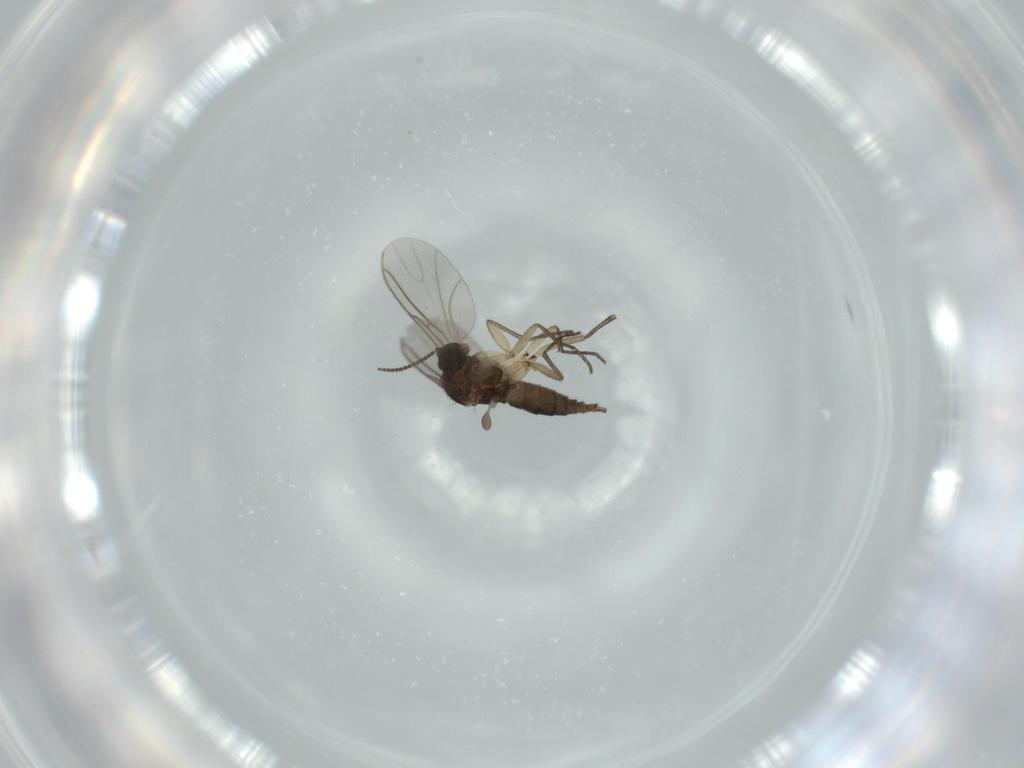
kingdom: Animalia
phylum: Arthropoda
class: Insecta
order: Diptera
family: Sciaridae
